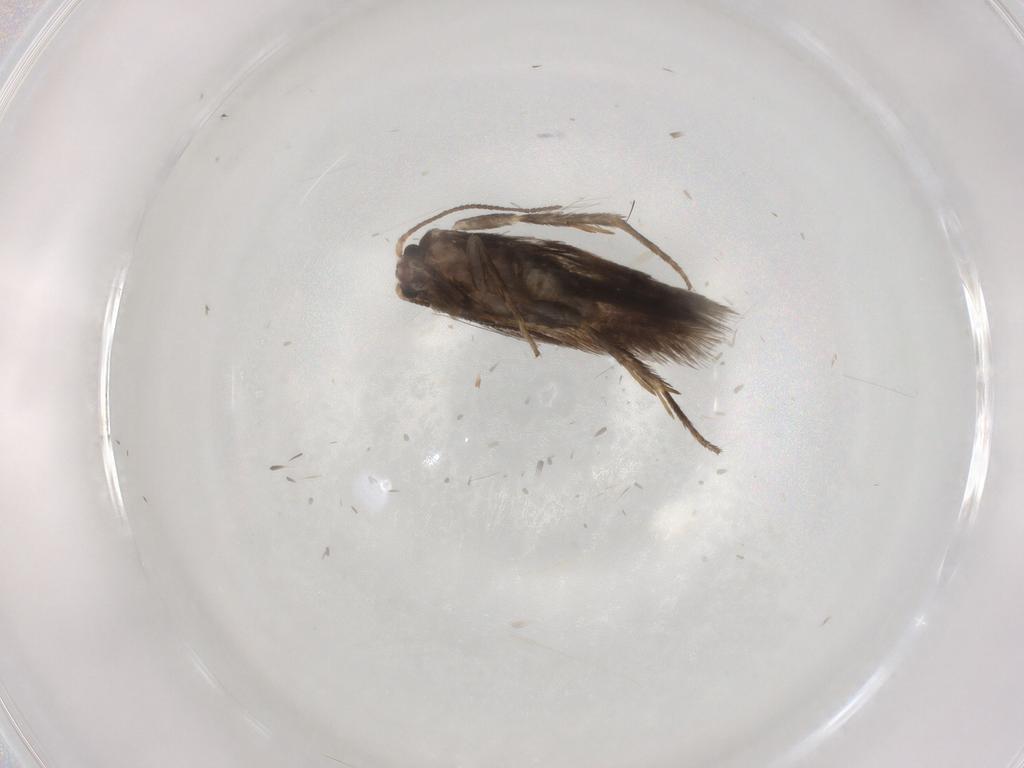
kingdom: Animalia
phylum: Arthropoda
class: Insecta
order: Lepidoptera
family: Nepticulidae
